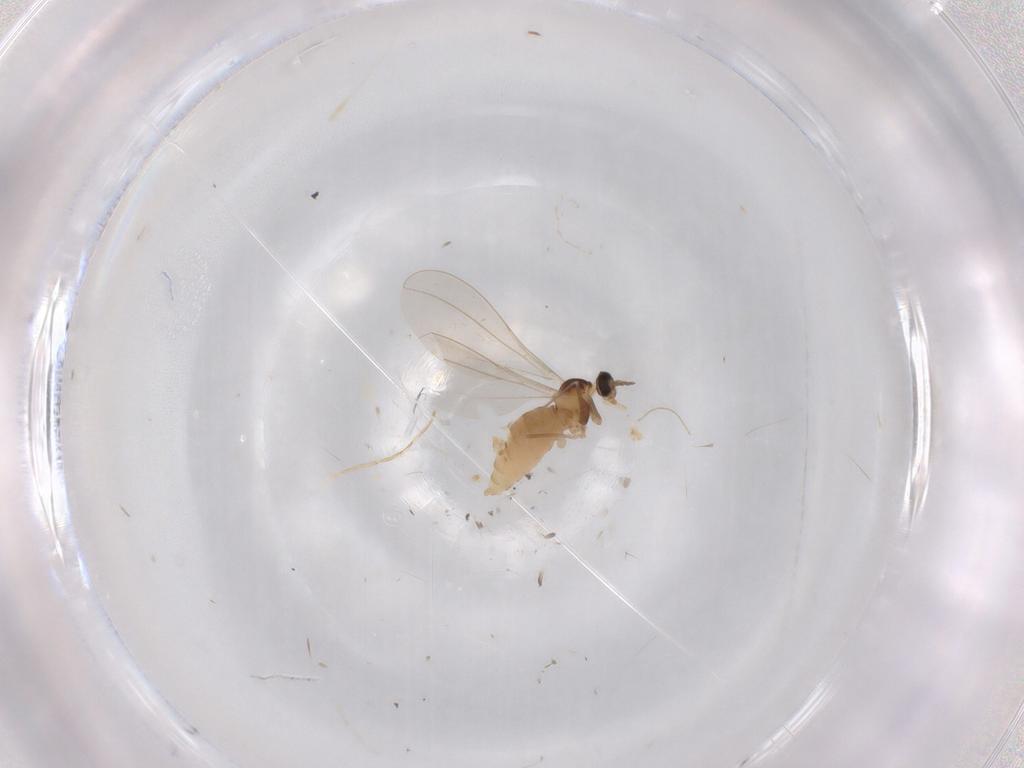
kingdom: Animalia
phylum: Arthropoda
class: Insecta
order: Diptera
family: Cecidomyiidae
